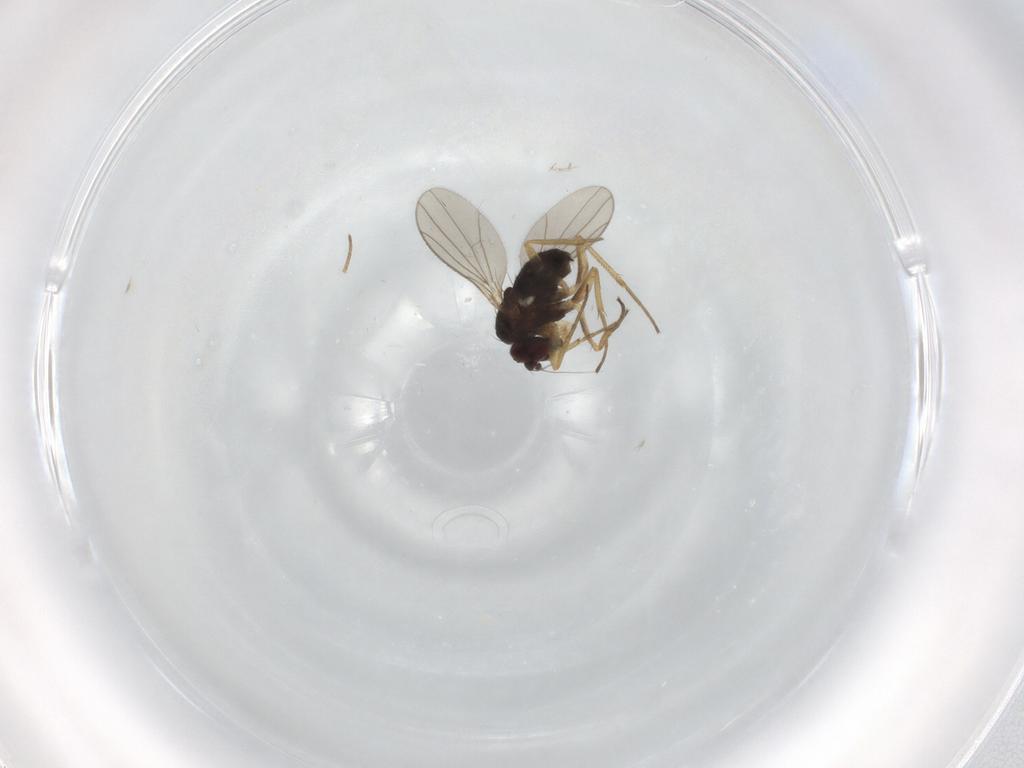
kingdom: Animalia
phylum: Arthropoda
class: Insecta
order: Diptera
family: Dolichopodidae
